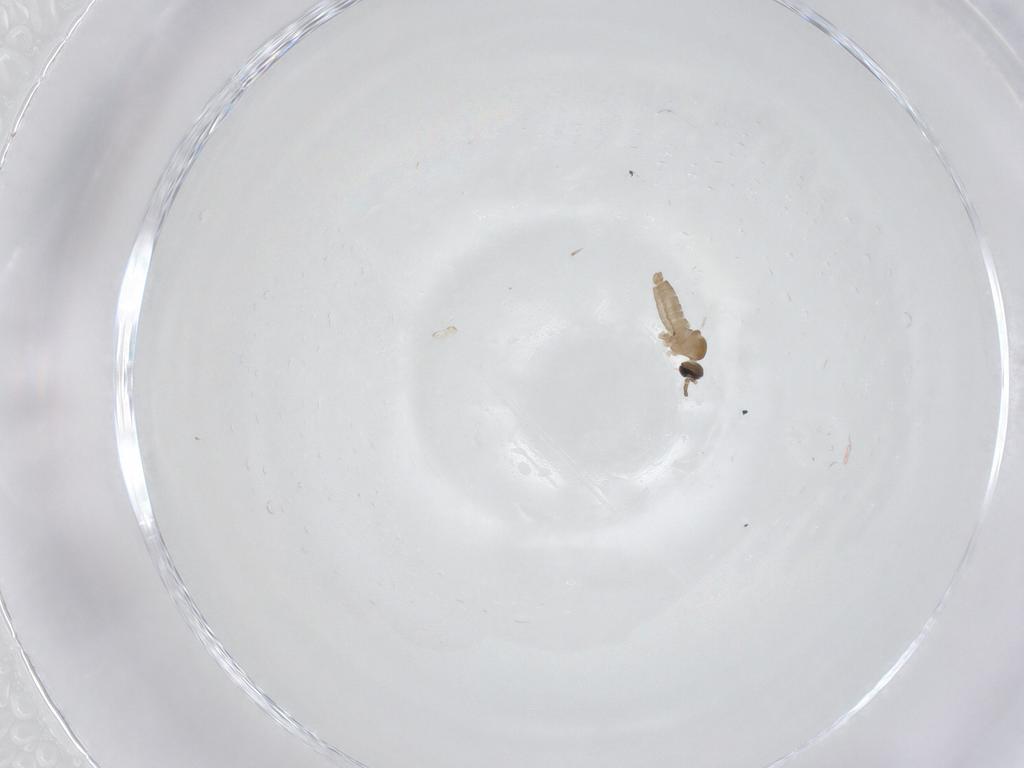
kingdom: Animalia
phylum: Arthropoda
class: Insecta
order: Diptera
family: Cecidomyiidae
